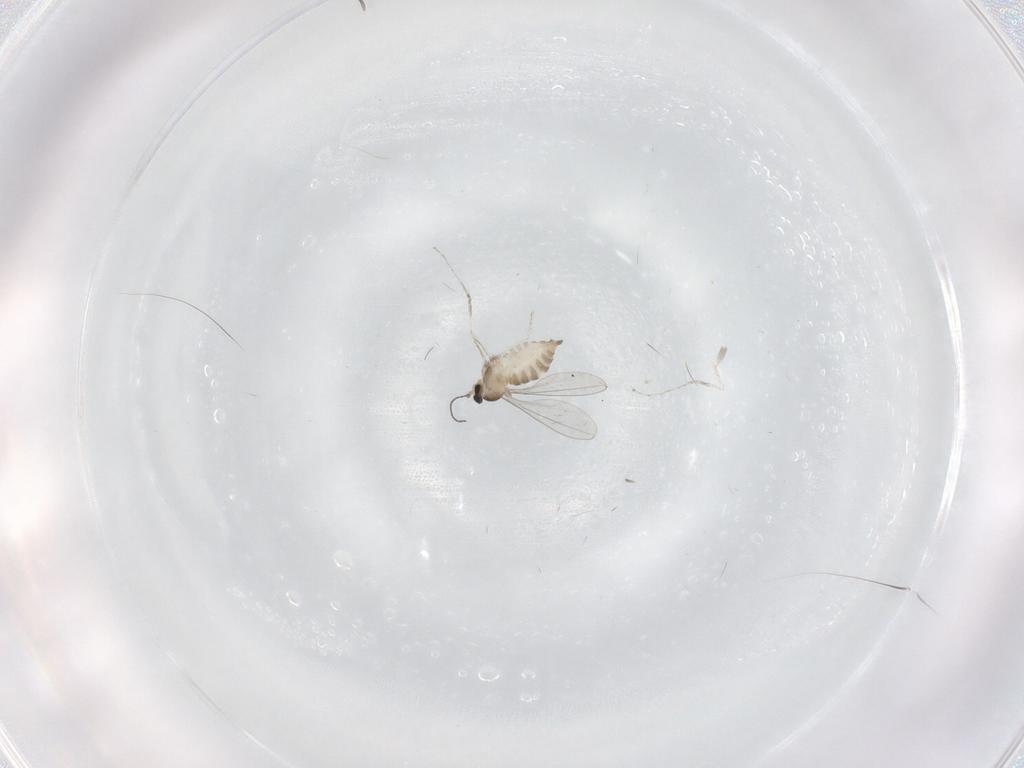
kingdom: Animalia
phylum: Arthropoda
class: Insecta
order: Diptera
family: Cecidomyiidae
